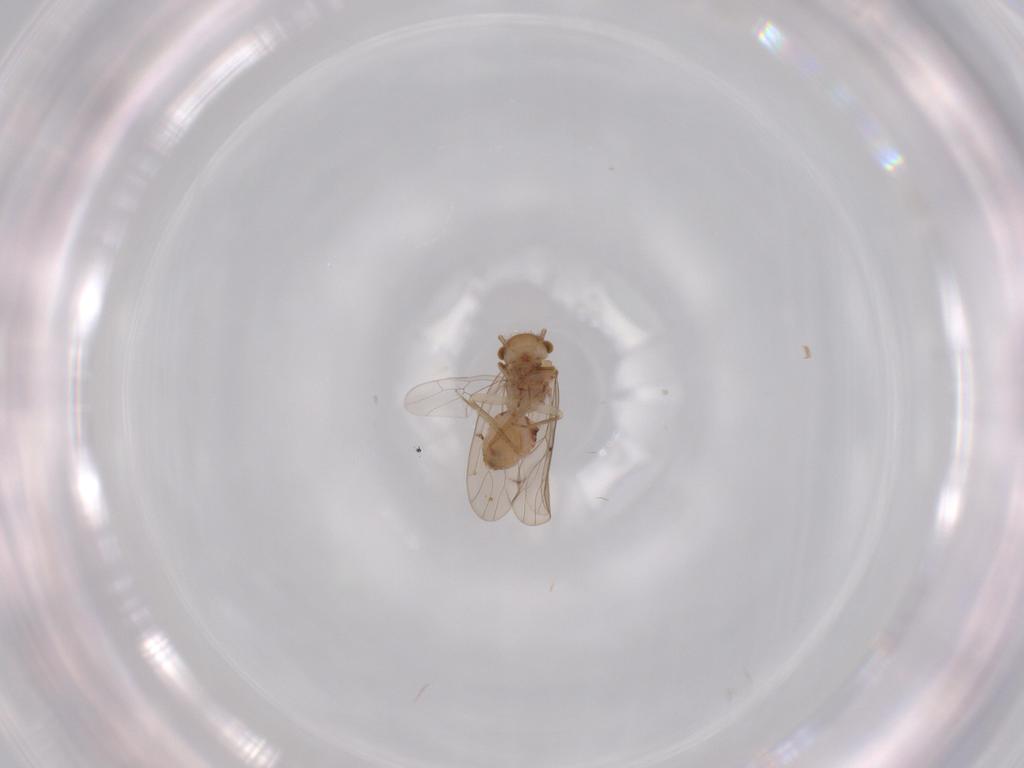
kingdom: Animalia
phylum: Arthropoda
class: Insecta
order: Psocodea
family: Ectopsocidae
